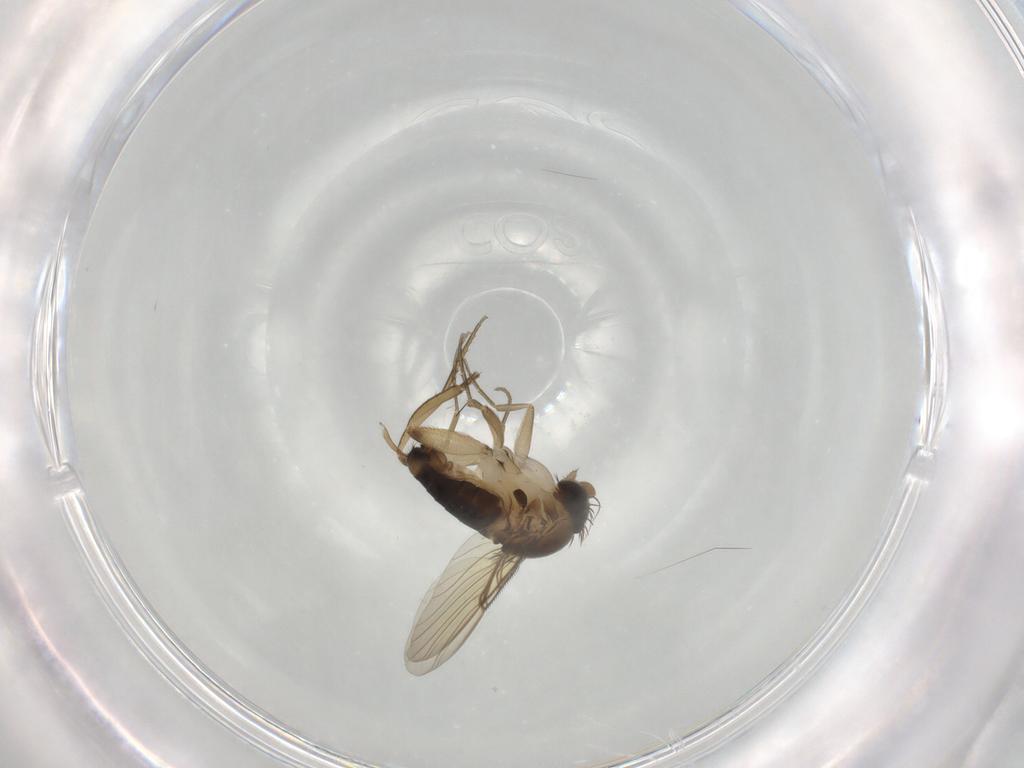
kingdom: Animalia
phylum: Arthropoda
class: Insecta
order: Diptera
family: Phoridae
